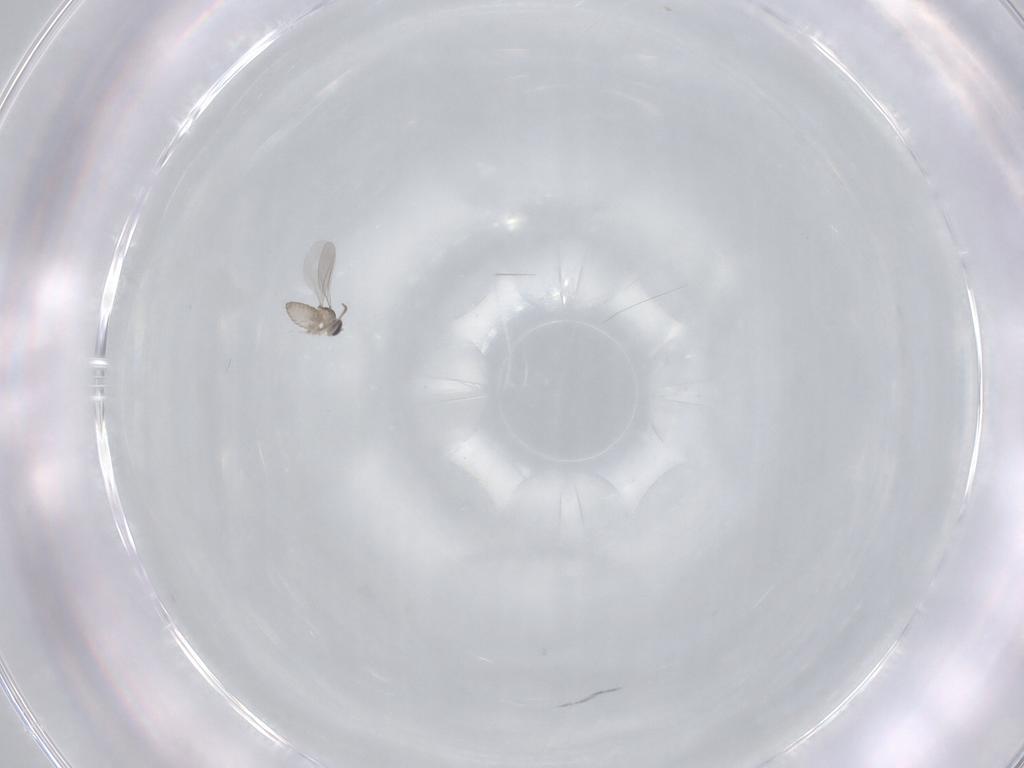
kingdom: Animalia
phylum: Arthropoda
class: Insecta
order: Diptera
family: Cecidomyiidae
